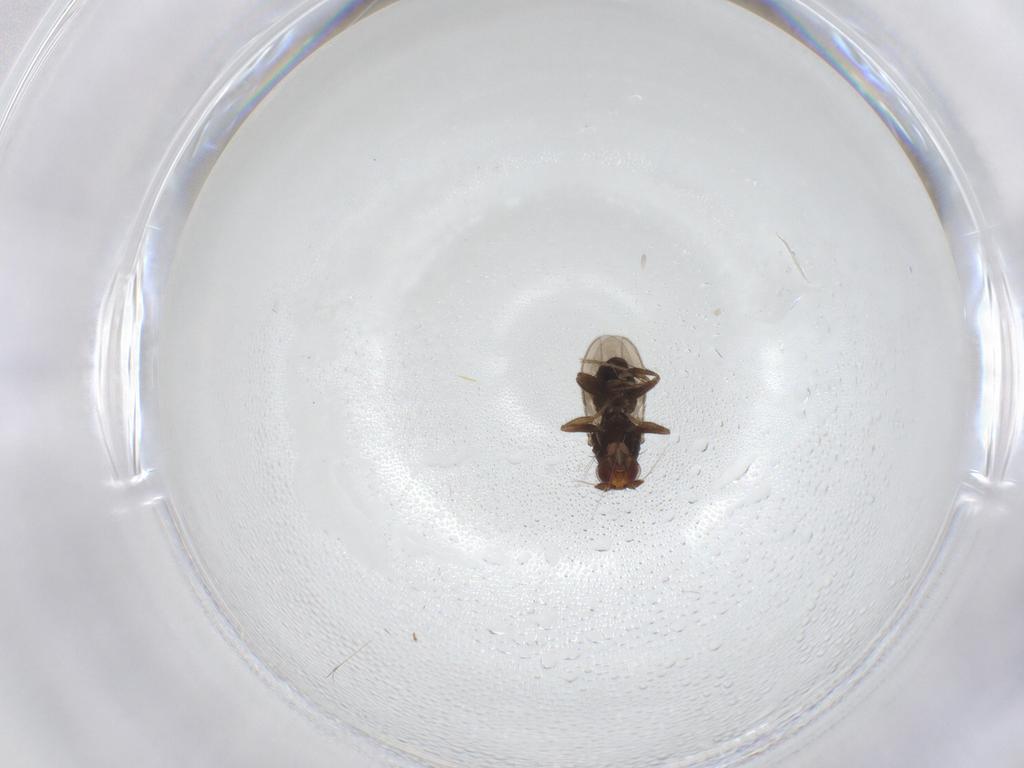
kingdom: Animalia
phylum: Arthropoda
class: Insecta
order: Diptera
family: Sphaeroceridae
